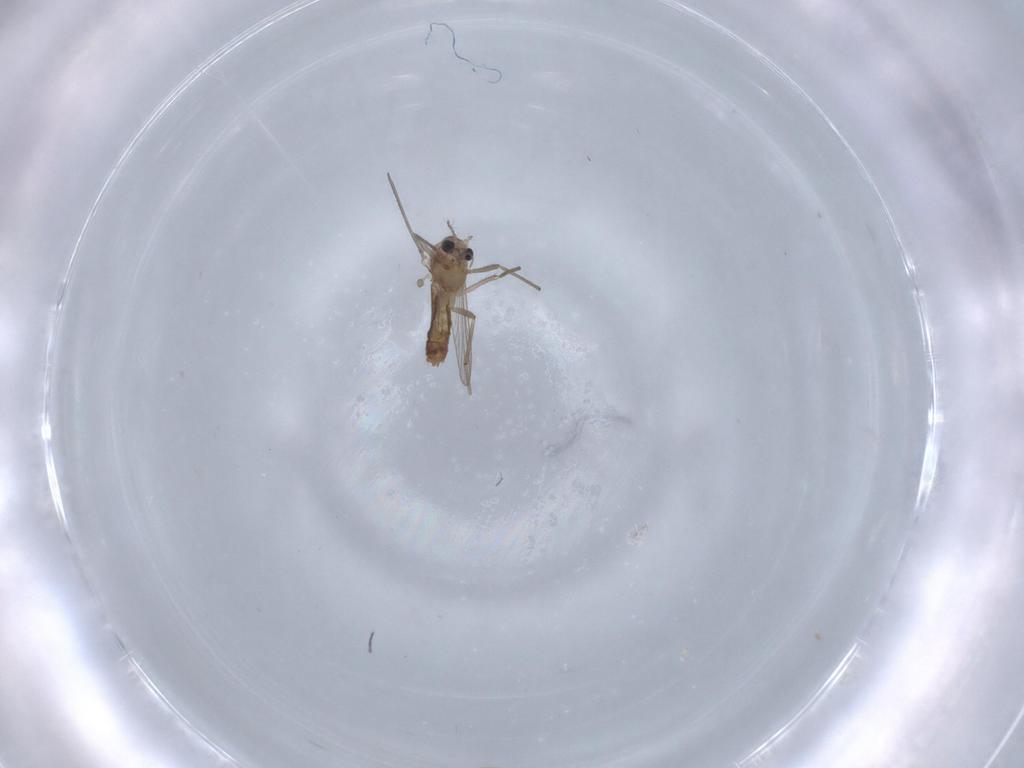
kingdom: Animalia
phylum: Arthropoda
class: Insecta
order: Diptera
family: Chironomidae
